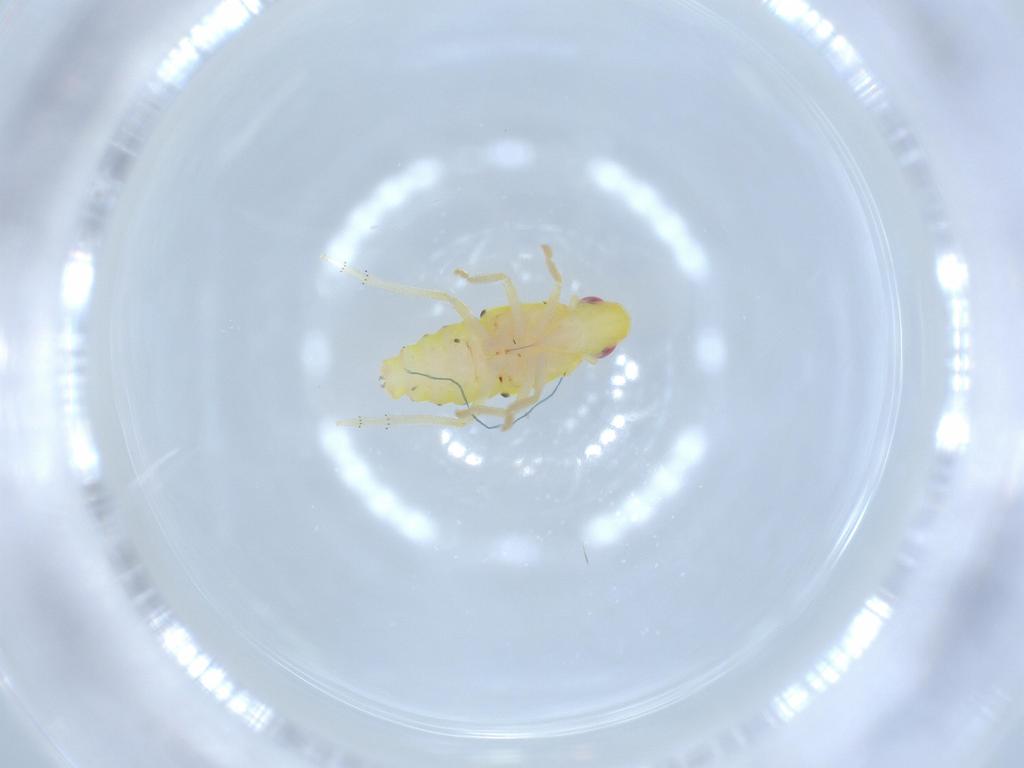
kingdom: Animalia
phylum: Arthropoda
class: Insecta
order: Hemiptera
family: Tropiduchidae
